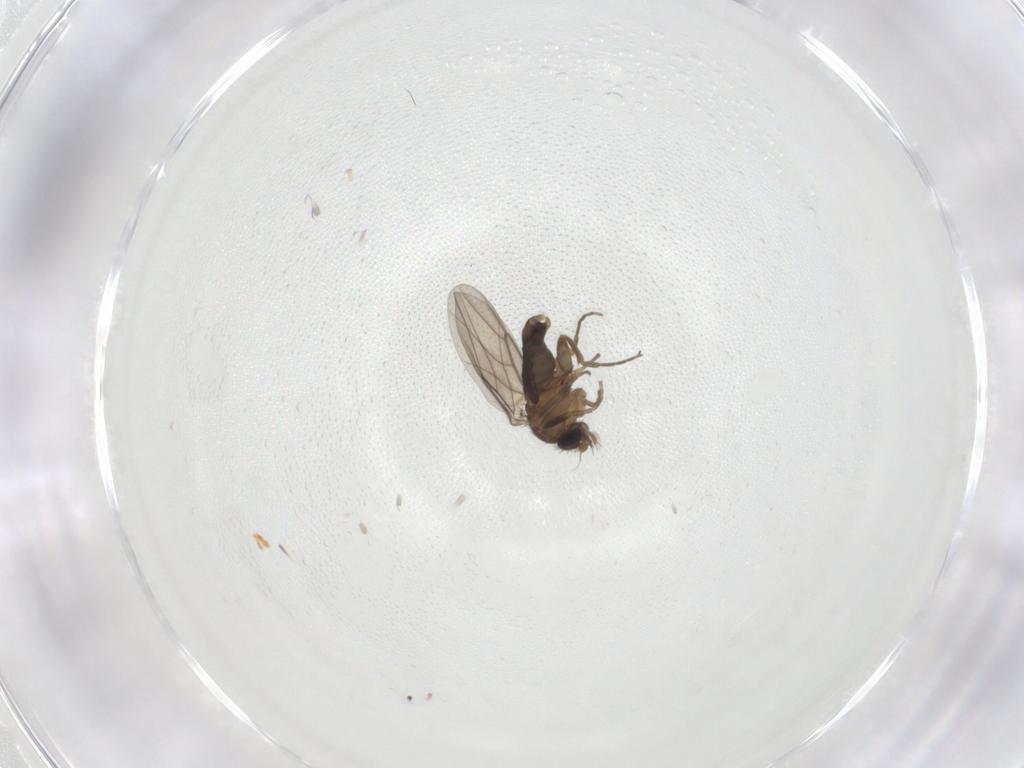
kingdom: Animalia
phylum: Arthropoda
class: Insecta
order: Diptera
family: Phoridae
